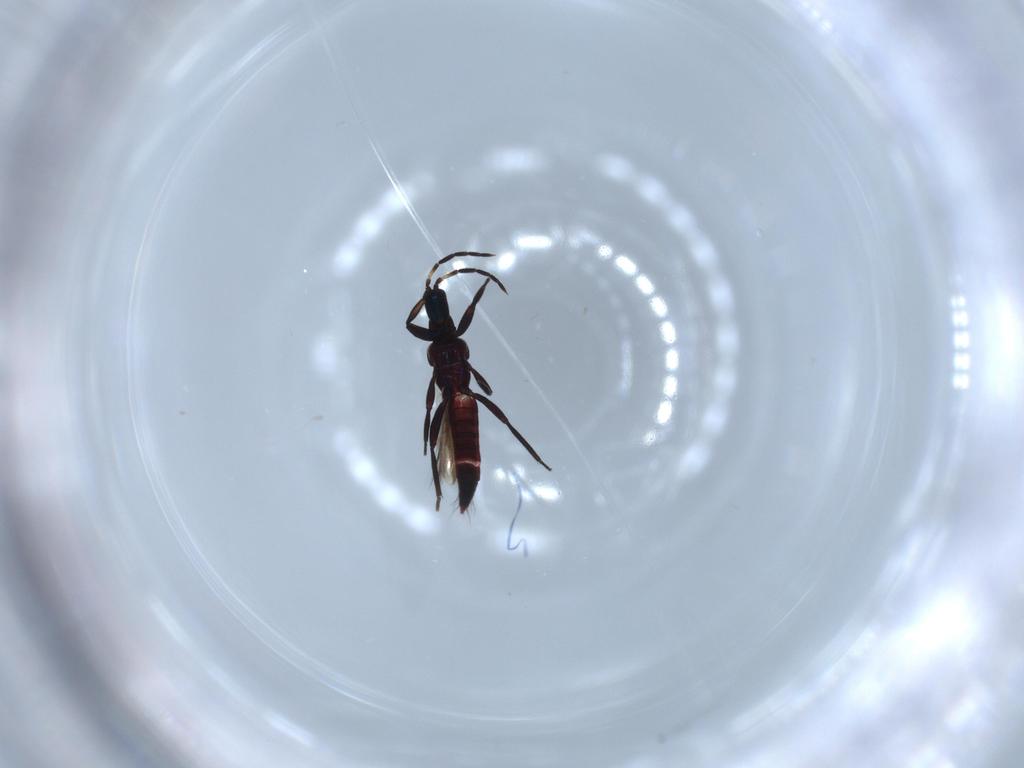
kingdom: Animalia
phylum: Arthropoda
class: Insecta
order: Thysanoptera
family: Aeolothripidae
